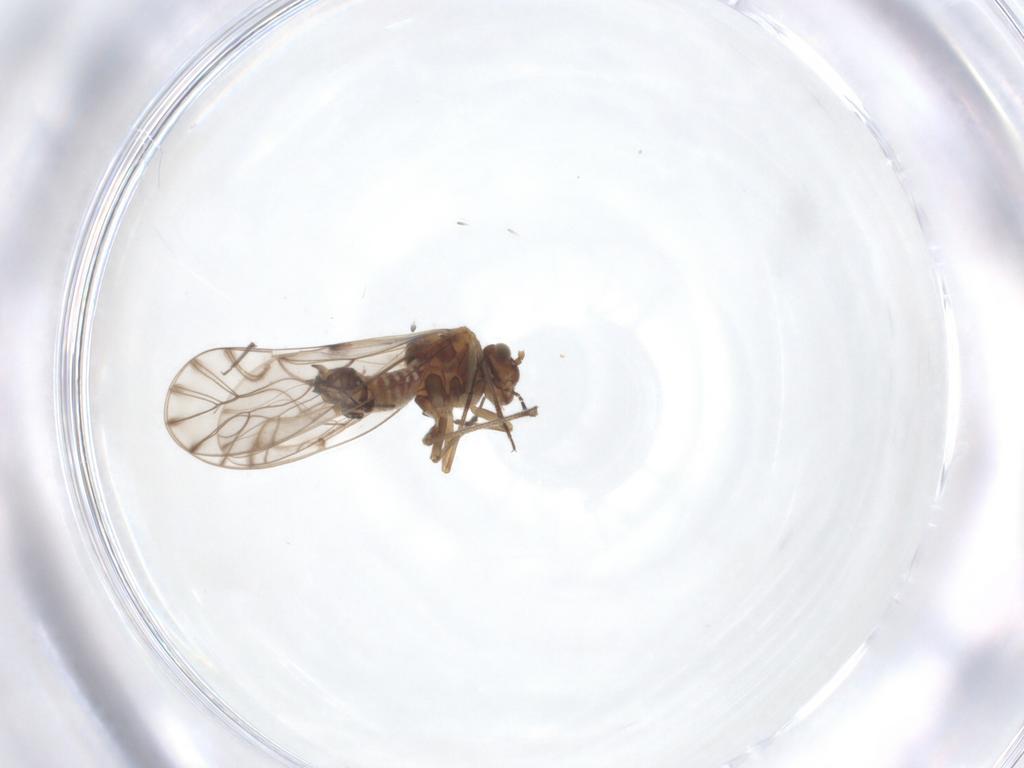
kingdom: Animalia
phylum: Arthropoda
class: Insecta
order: Psocodea
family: Lachesillidae
